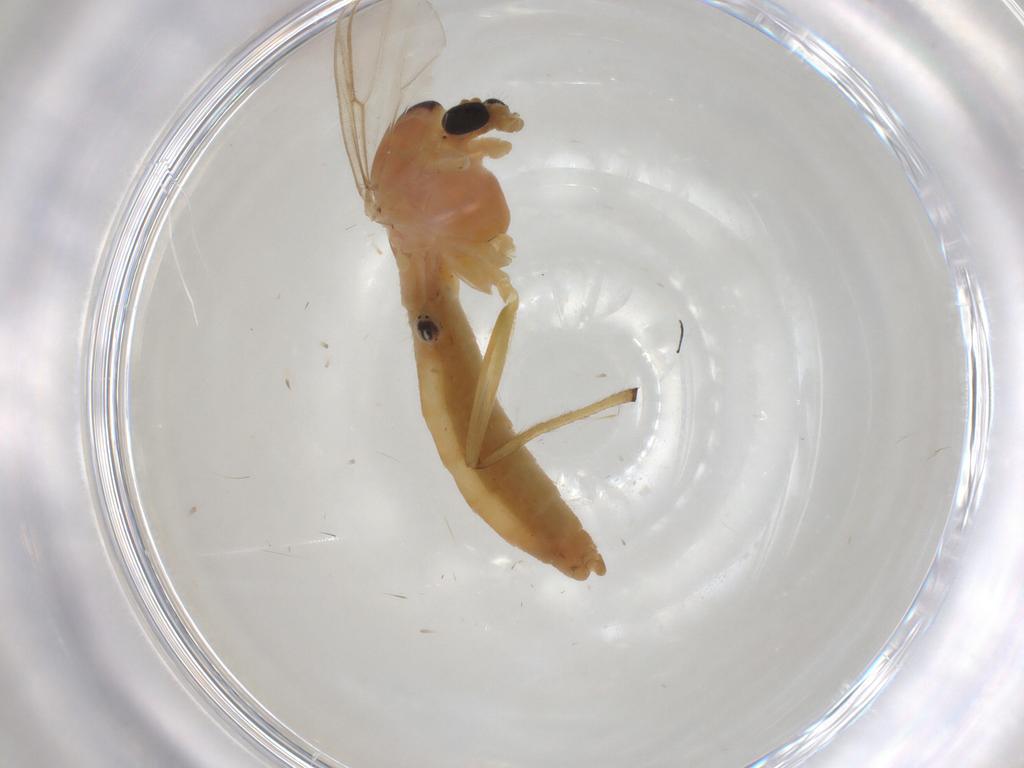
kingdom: Animalia
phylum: Arthropoda
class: Insecta
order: Diptera
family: Chironomidae
